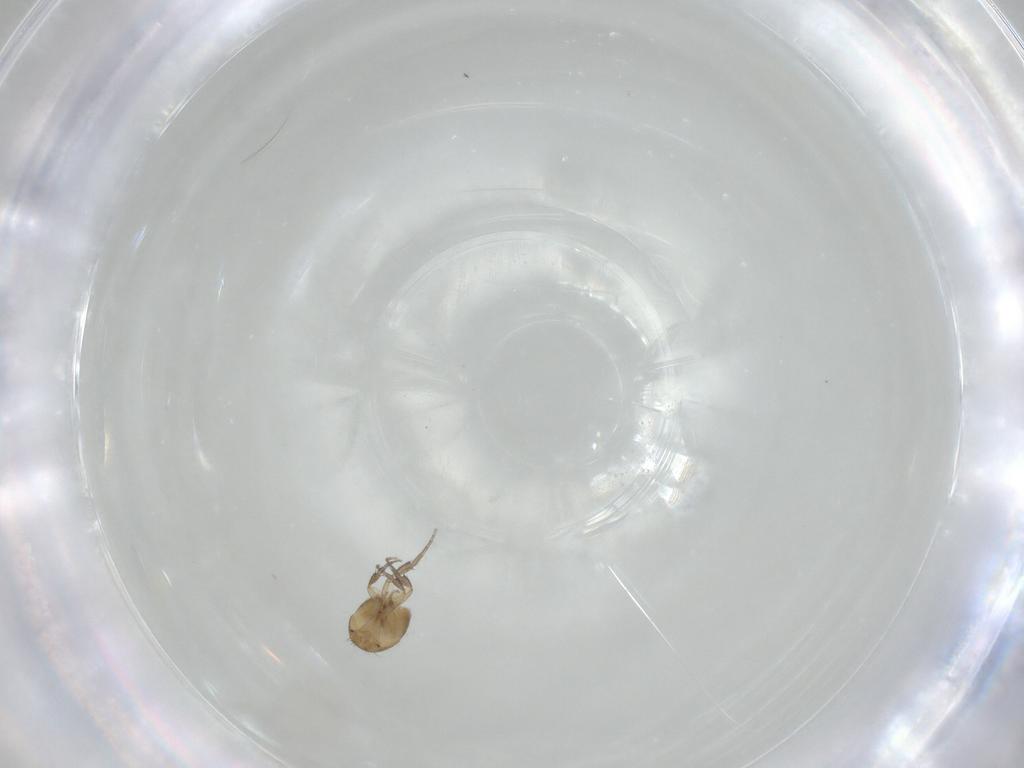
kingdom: Animalia
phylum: Arthropoda
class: Insecta
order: Diptera
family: Phoridae
